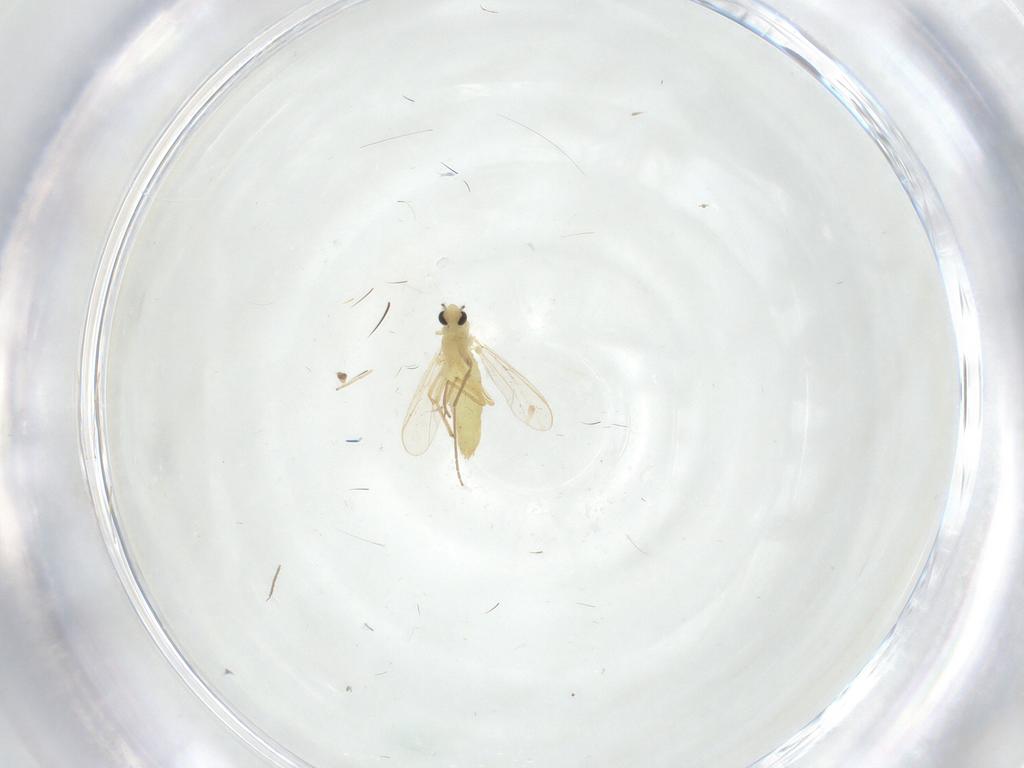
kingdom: Animalia
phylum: Arthropoda
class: Insecta
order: Diptera
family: Chironomidae
